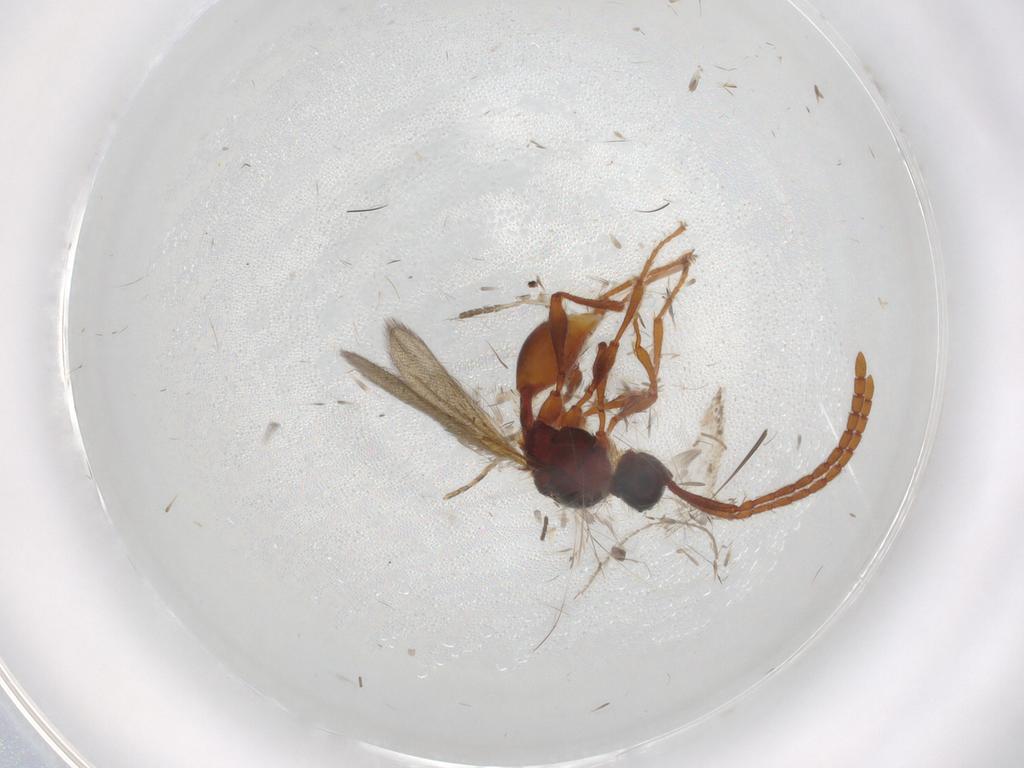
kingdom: Animalia
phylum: Arthropoda
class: Insecta
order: Hymenoptera
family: Diapriidae
